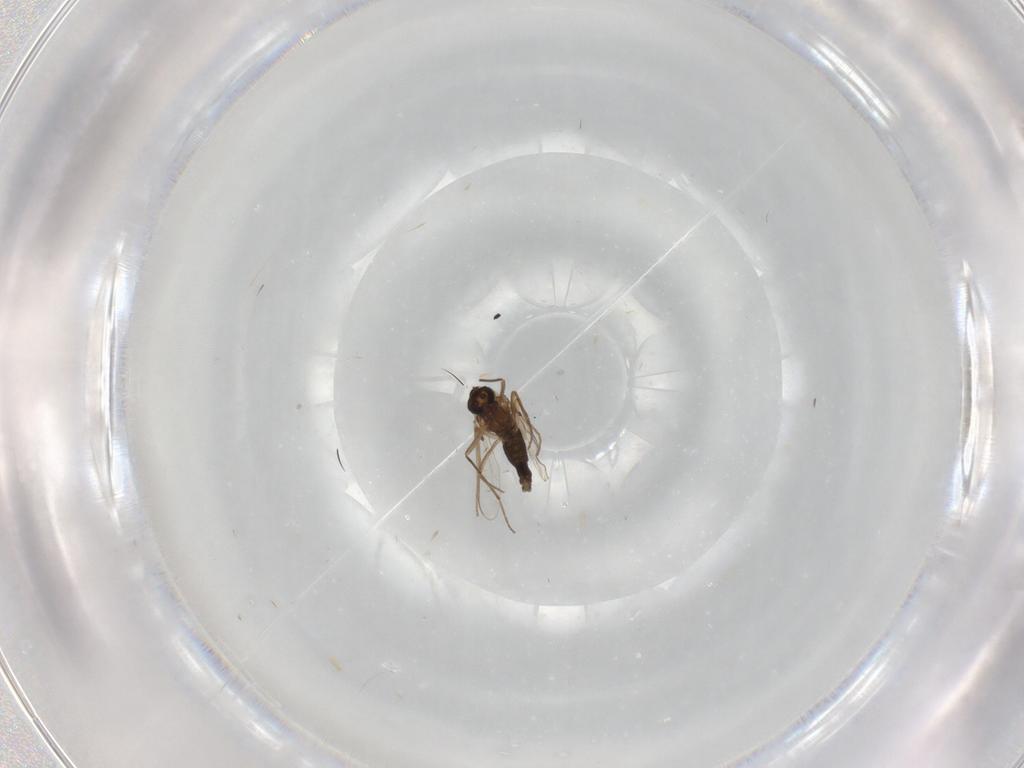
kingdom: Animalia
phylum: Arthropoda
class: Insecta
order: Diptera
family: Chironomidae
